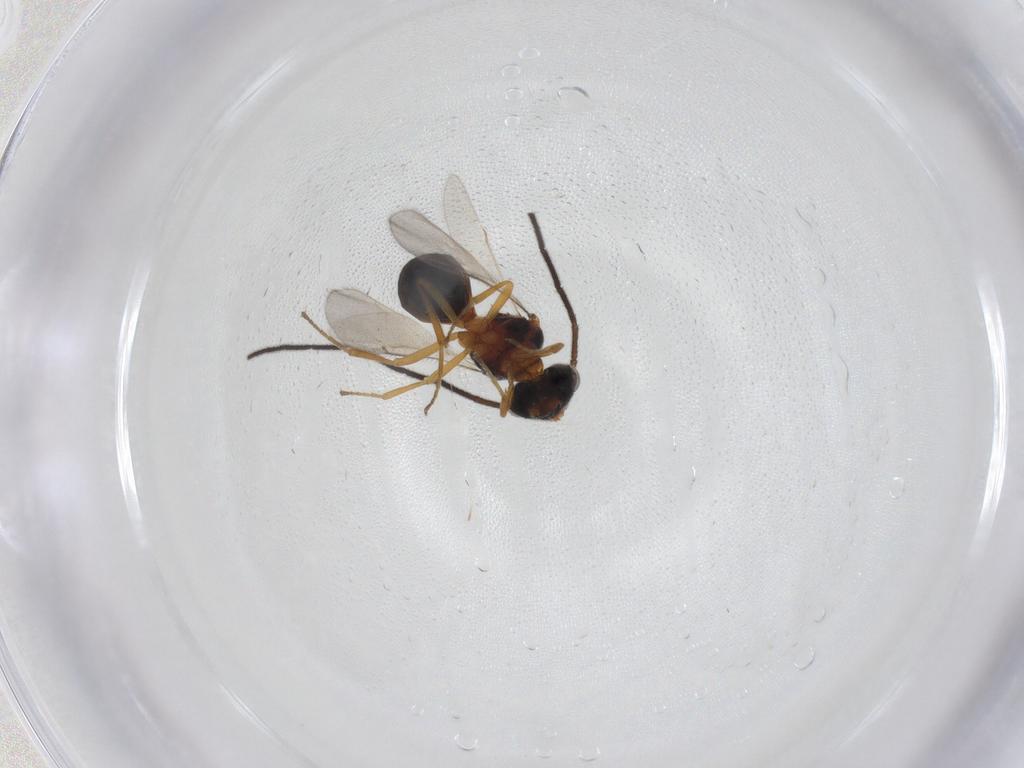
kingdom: Animalia
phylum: Arthropoda
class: Insecta
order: Hymenoptera
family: Scelionidae
